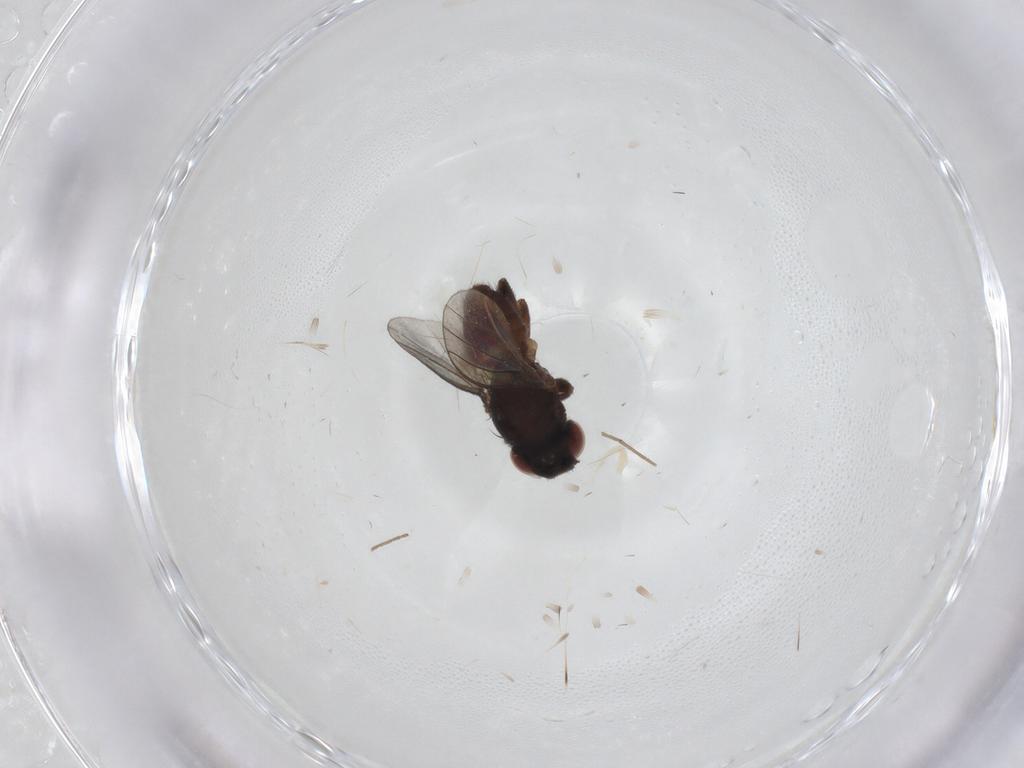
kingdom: Animalia
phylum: Arthropoda
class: Insecta
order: Diptera
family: Milichiidae
